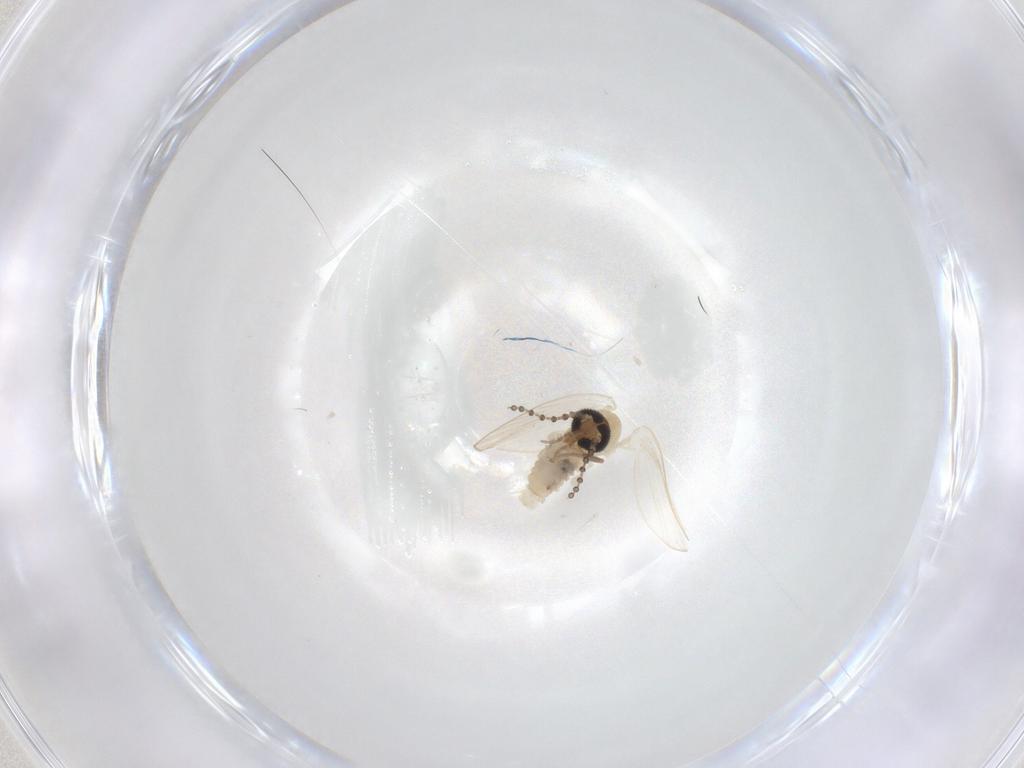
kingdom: Animalia
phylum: Arthropoda
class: Insecta
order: Diptera
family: Psychodidae
